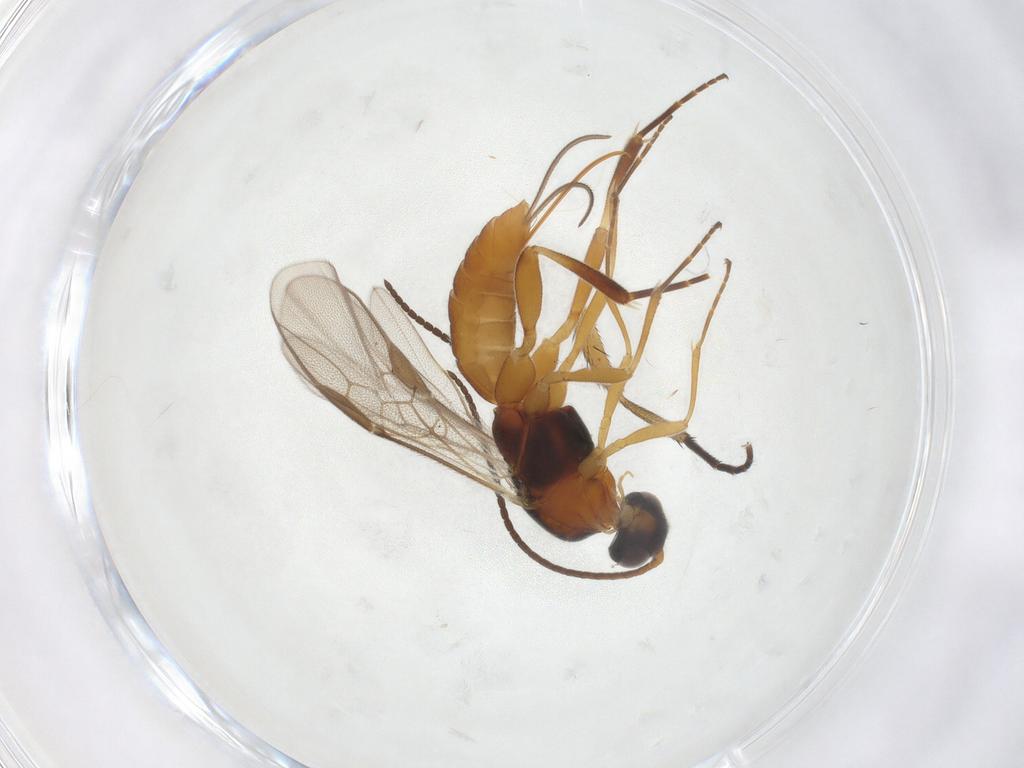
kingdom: Animalia
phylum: Arthropoda
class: Insecta
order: Hymenoptera
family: Braconidae
